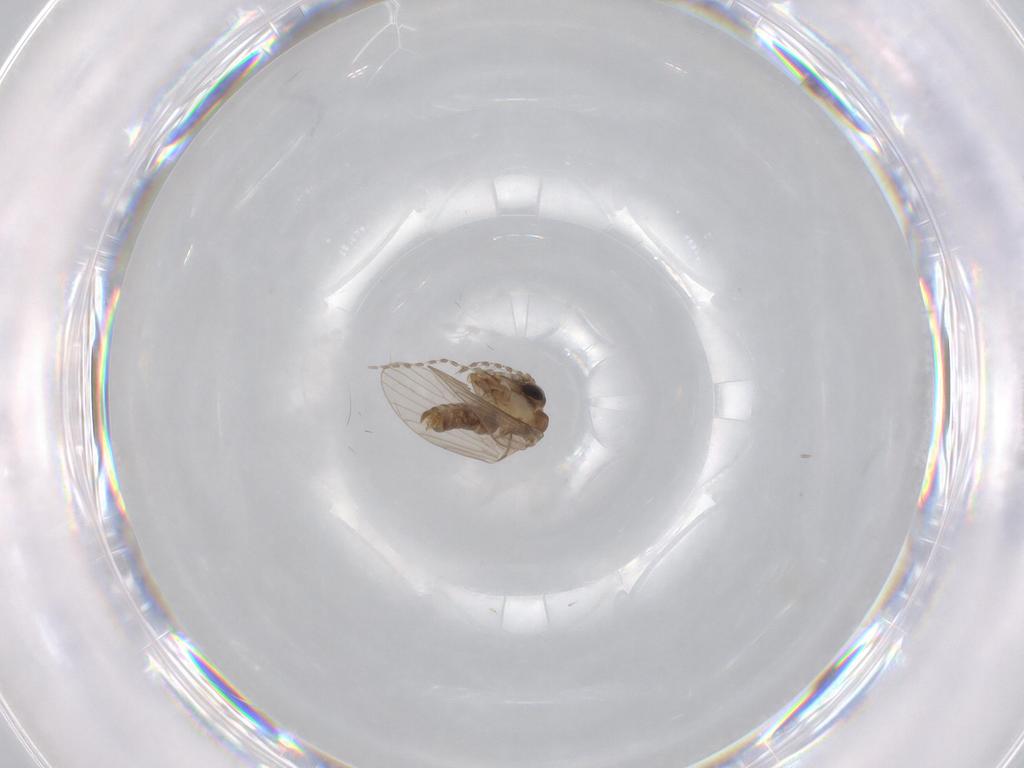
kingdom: Animalia
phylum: Arthropoda
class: Insecta
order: Diptera
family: Psychodidae
